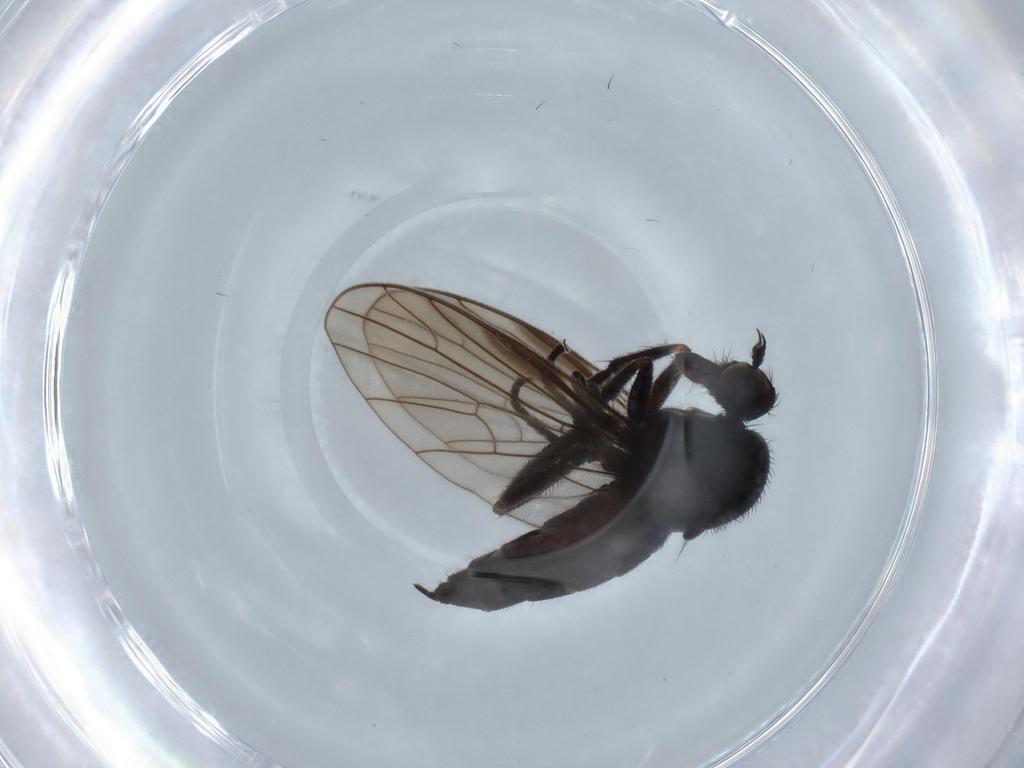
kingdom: Animalia
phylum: Arthropoda
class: Insecta
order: Diptera
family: Empididae
